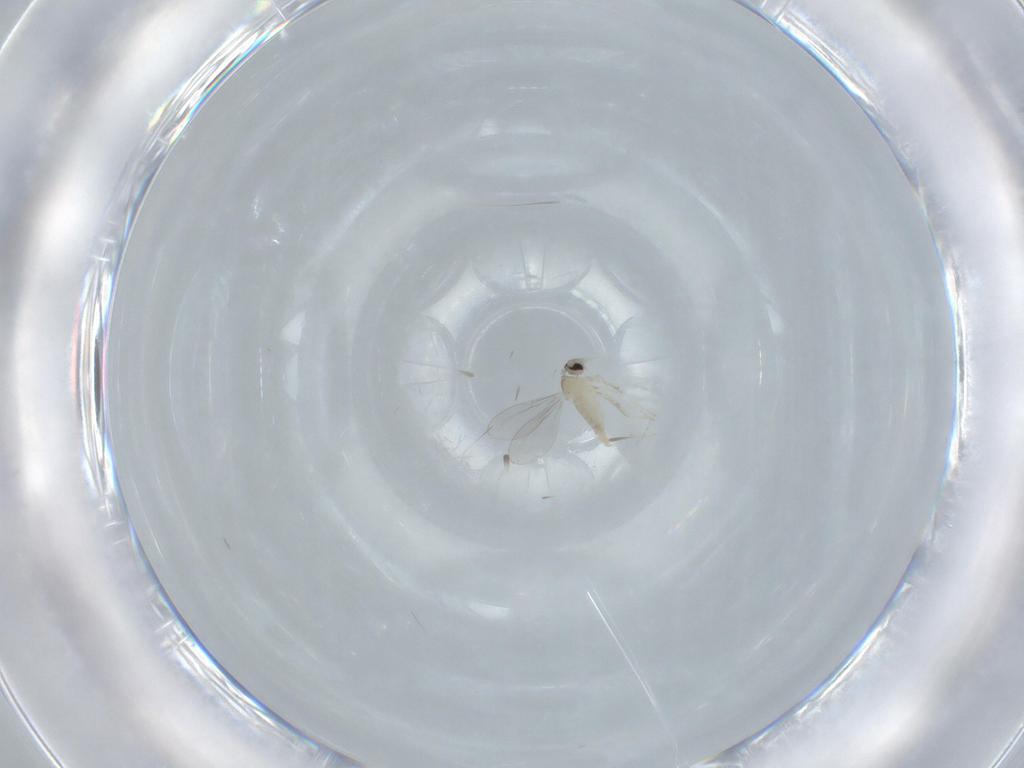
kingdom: Animalia
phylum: Arthropoda
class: Insecta
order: Diptera
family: Cecidomyiidae
